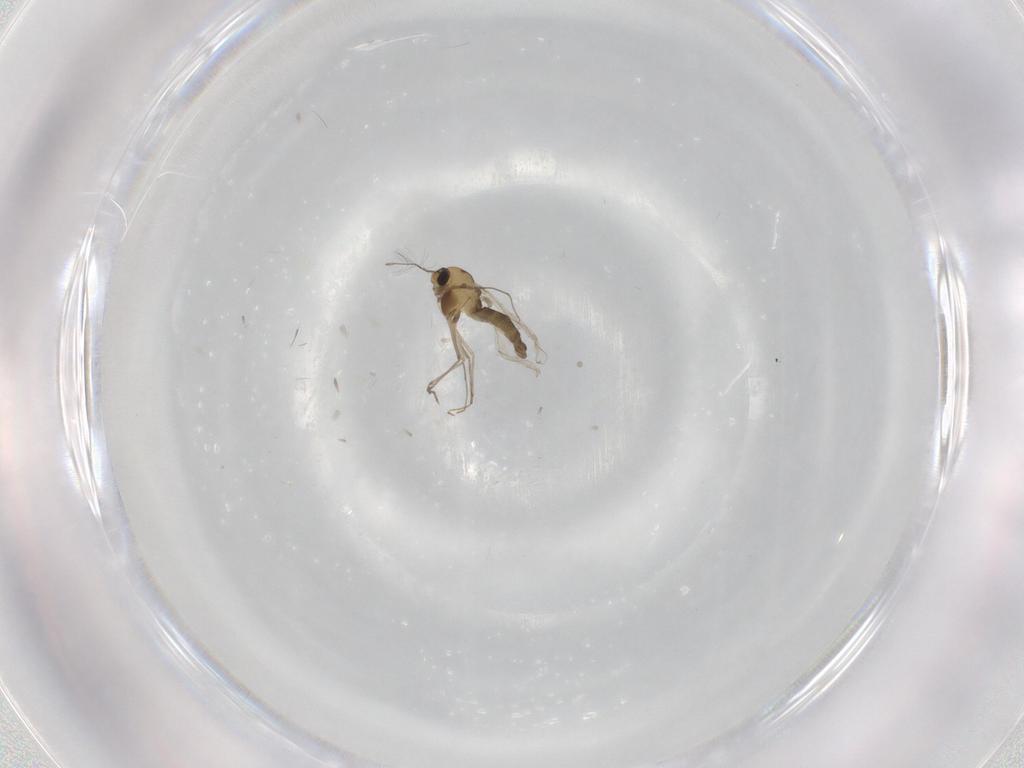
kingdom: Animalia
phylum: Arthropoda
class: Insecta
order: Diptera
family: Chironomidae
